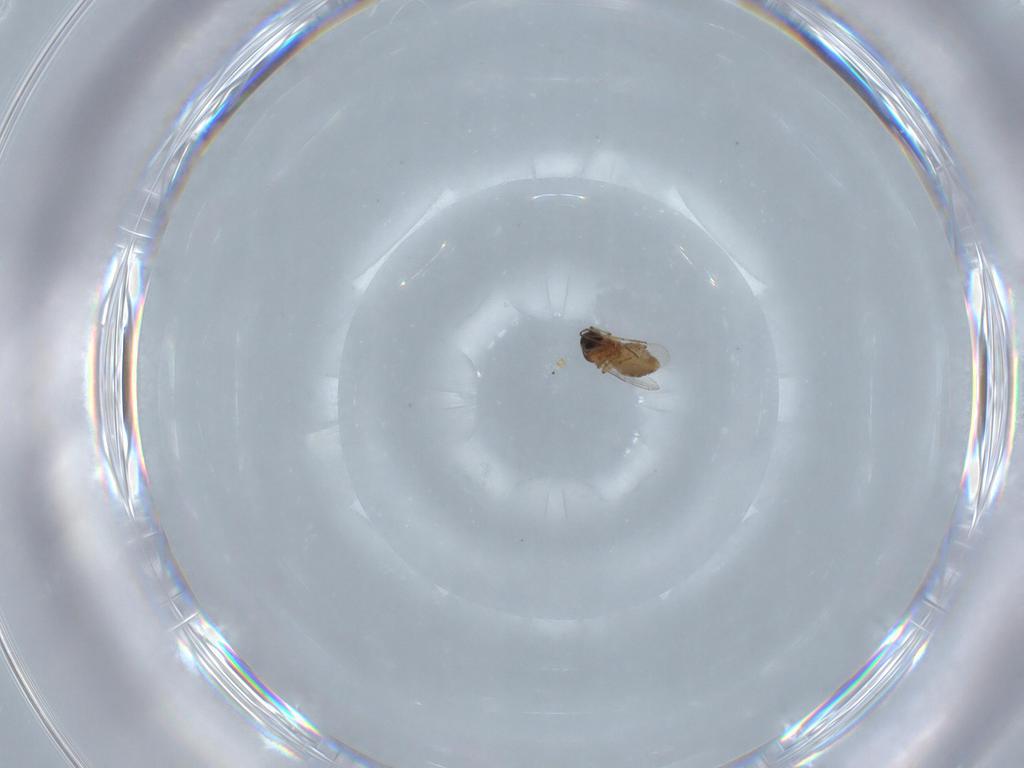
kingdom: Animalia
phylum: Arthropoda
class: Insecta
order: Diptera
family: Ceratopogonidae
